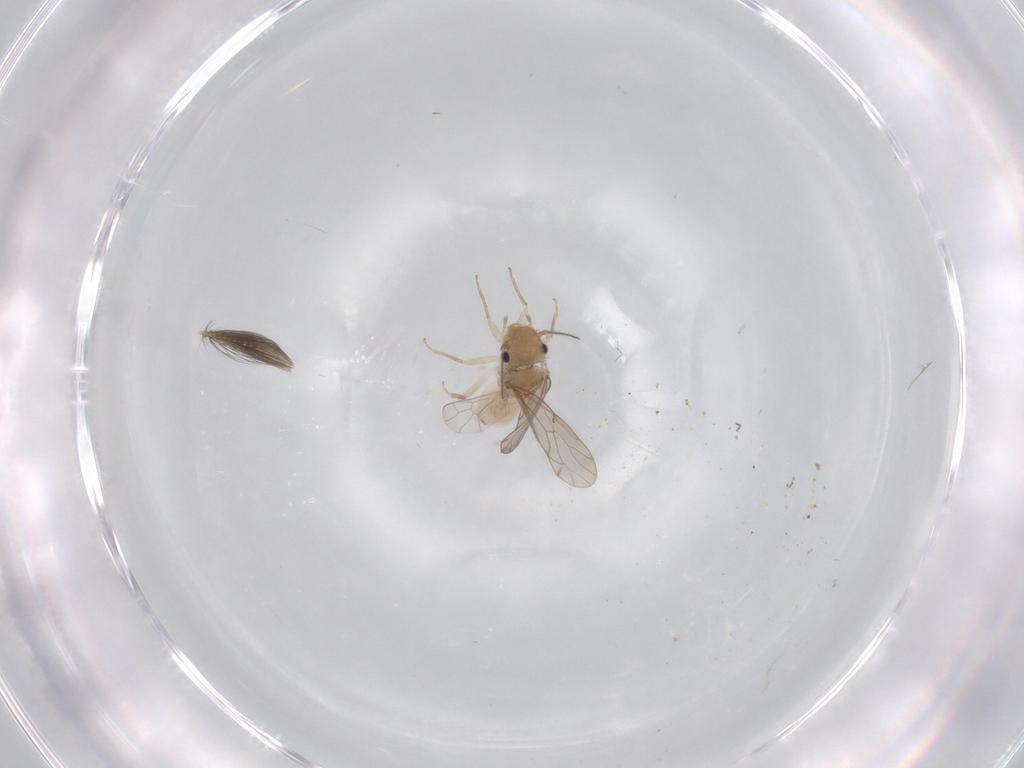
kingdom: Animalia
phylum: Arthropoda
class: Insecta
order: Psocodea
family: Ectopsocidae
